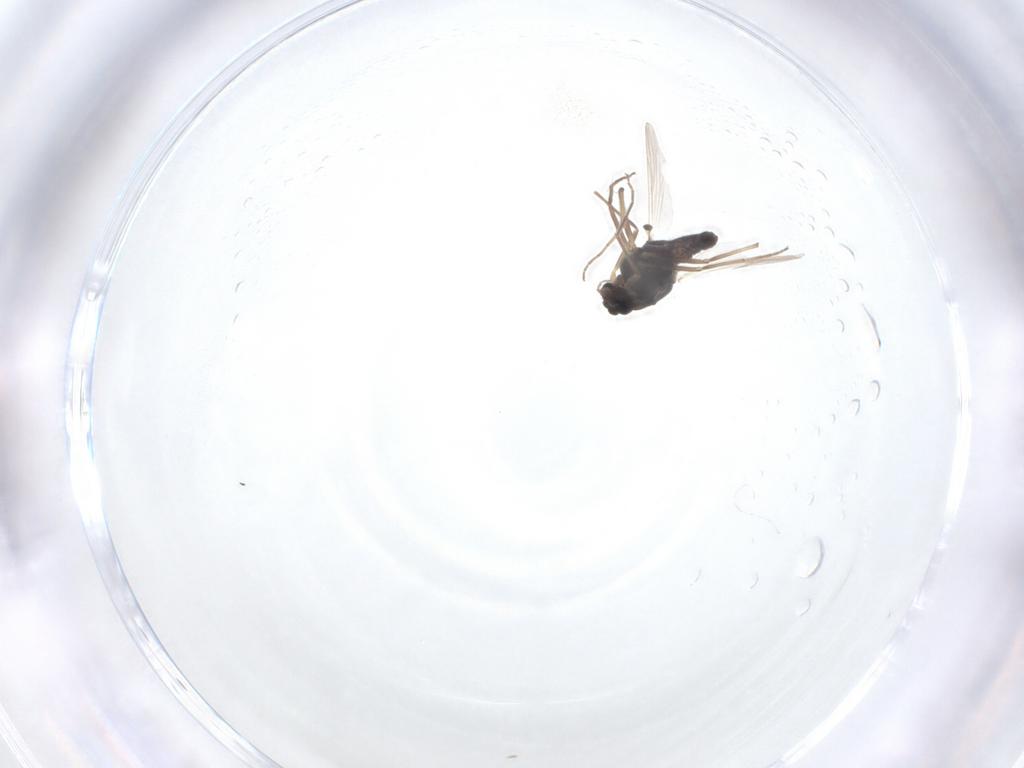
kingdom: Animalia
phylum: Arthropoda
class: Insecta
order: Diptera
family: Chironomidae
